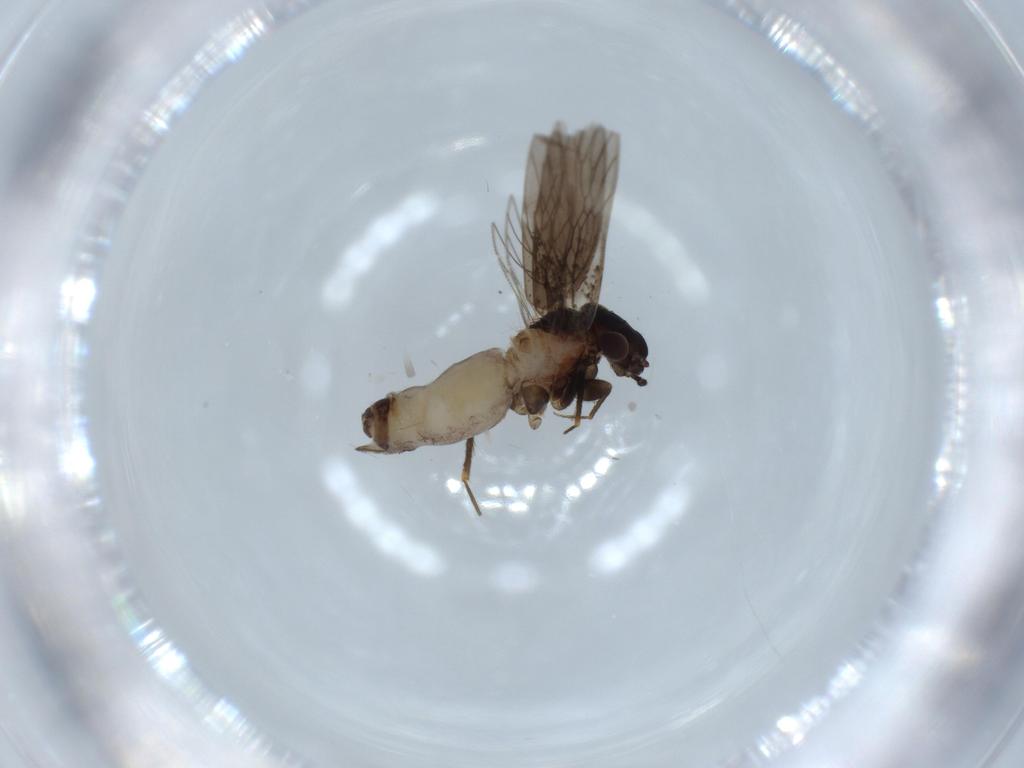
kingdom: Animalia
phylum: Arthropoda
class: Insecta
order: Psocodea
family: Lepidopsocidae
